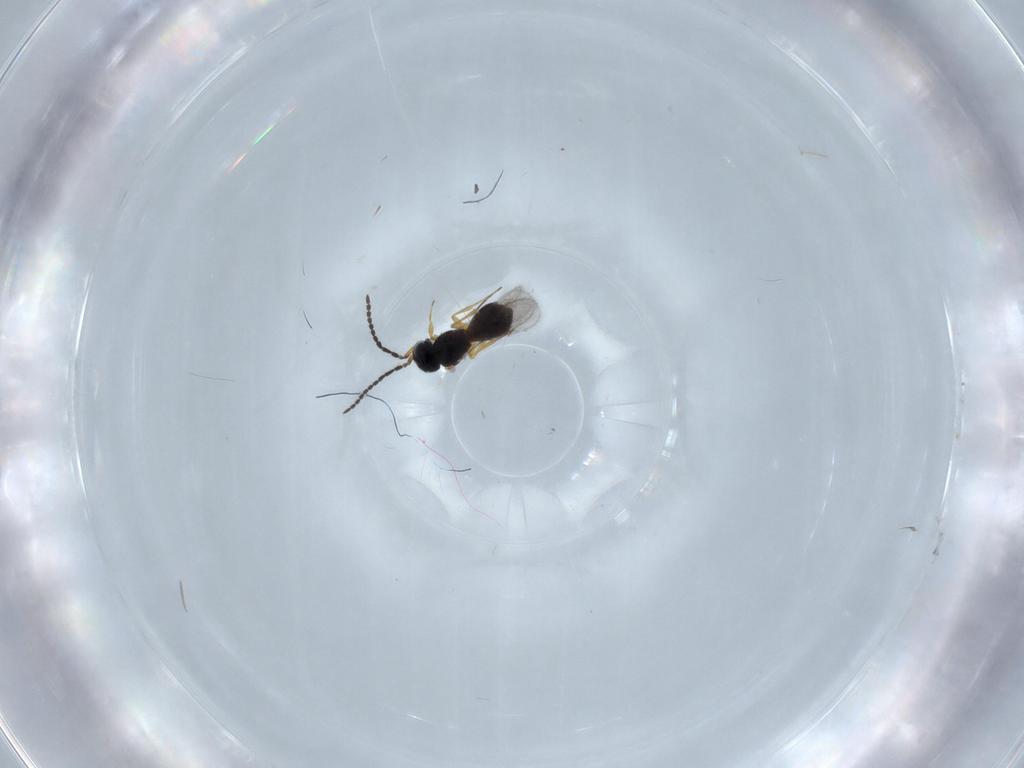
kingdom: Animalia
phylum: Arthropoda
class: Insecta
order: Hymenoptera
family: Scelionidae
